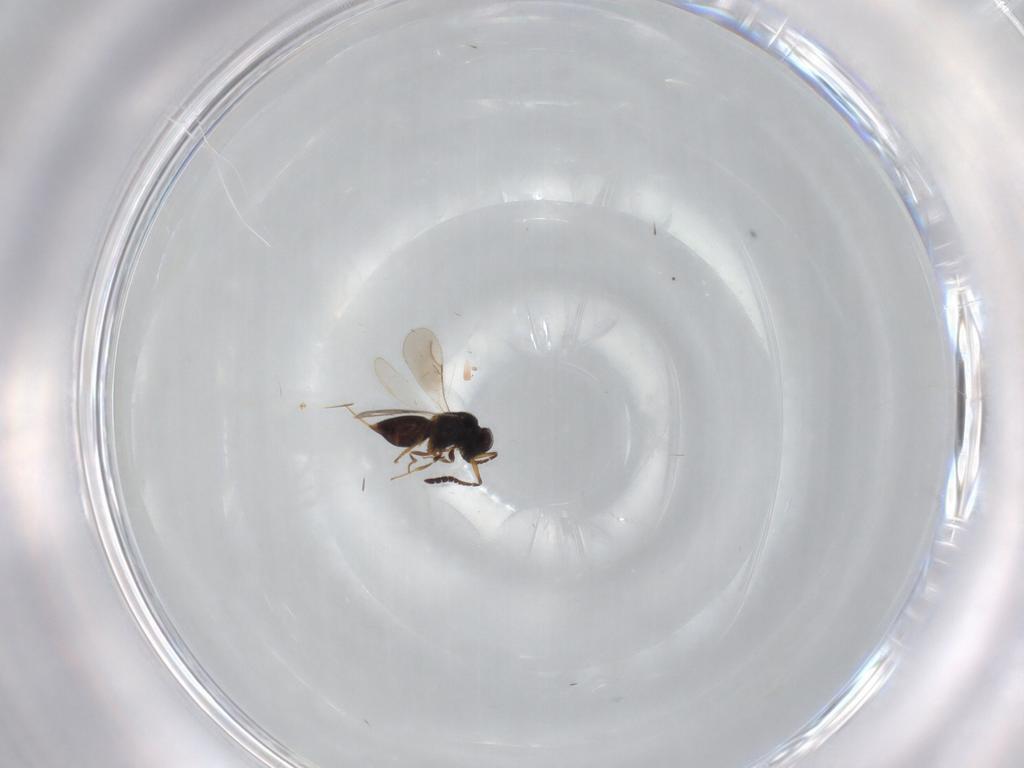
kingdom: Animalia
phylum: Arthropoda
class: Insecta
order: Hymenoptera
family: Ceraphronidae
